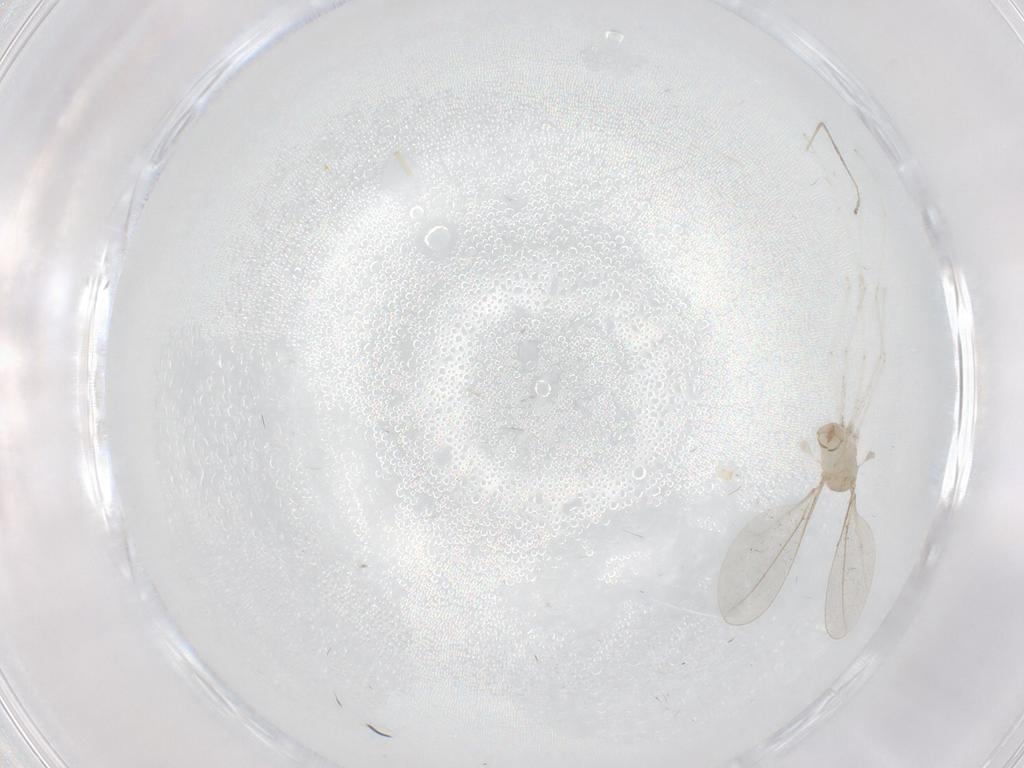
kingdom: Animalia
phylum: Arthropoda
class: Insecta
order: Diptera
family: Cecidomyiidae
